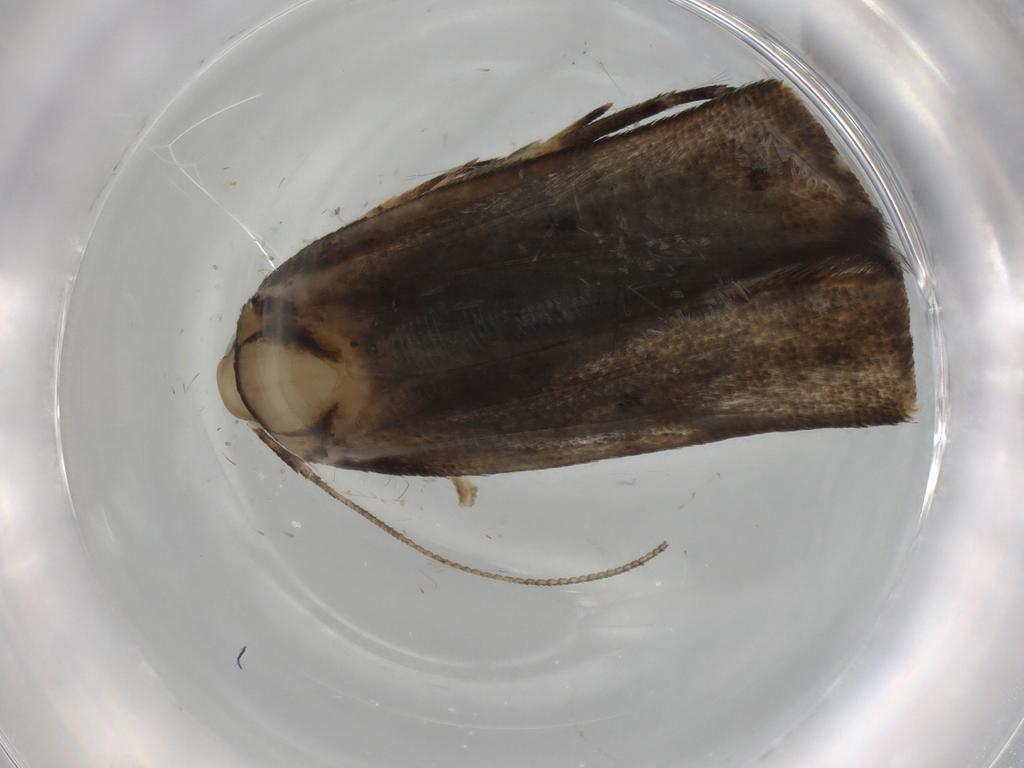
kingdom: Animalia
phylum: Arthropoda
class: Insecta
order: Lepidoptera
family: Momphidae
